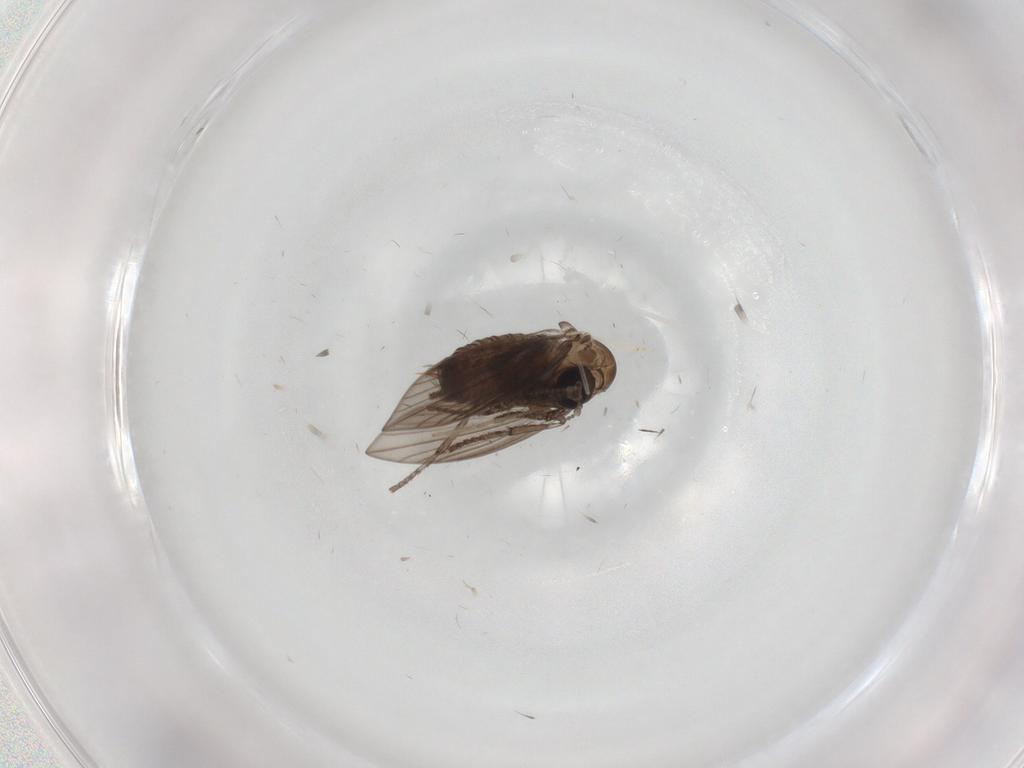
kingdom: Animalia
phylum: Arthropoda
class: Insecta
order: Diptera
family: Psychodidae
